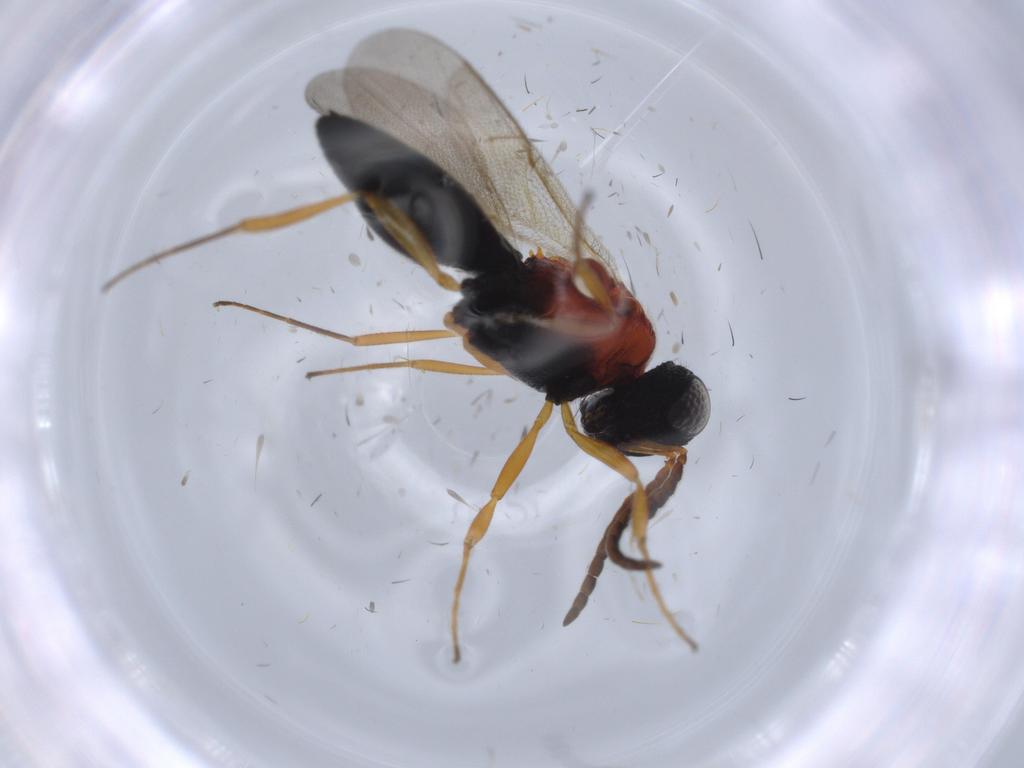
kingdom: Animalia
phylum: Arthropoda
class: Insecta
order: Hymenoptera
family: Scelionidae
